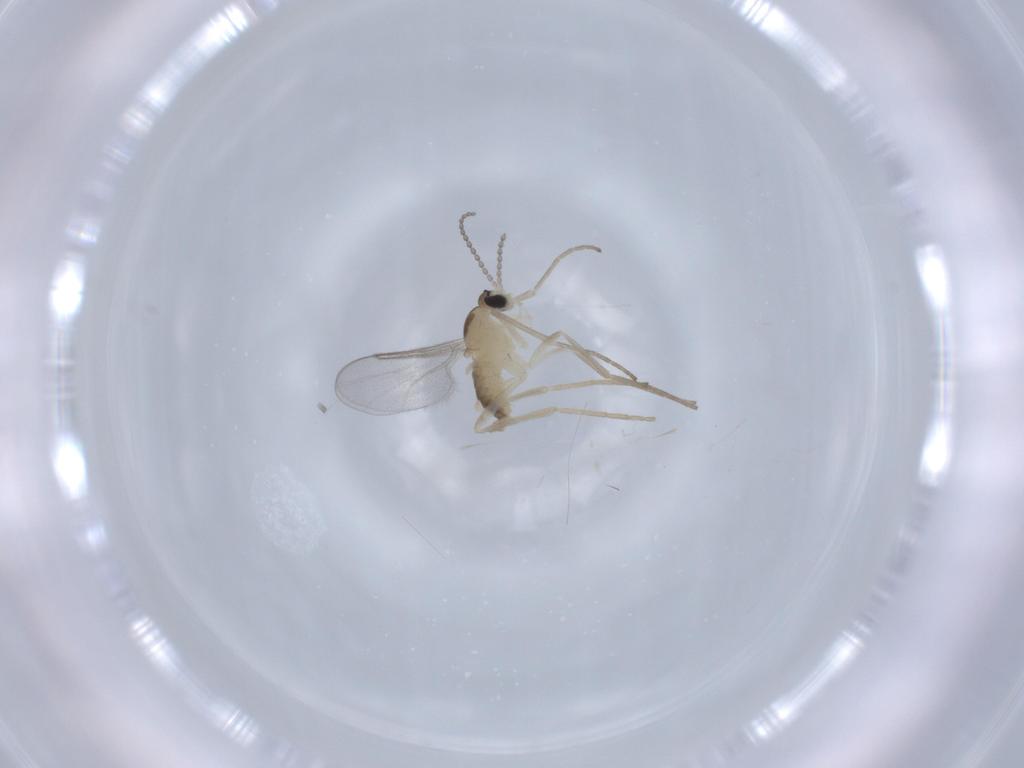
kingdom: Animalia
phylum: Arthropoda
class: Insecta
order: Diptera
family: Cecidomyiidae
